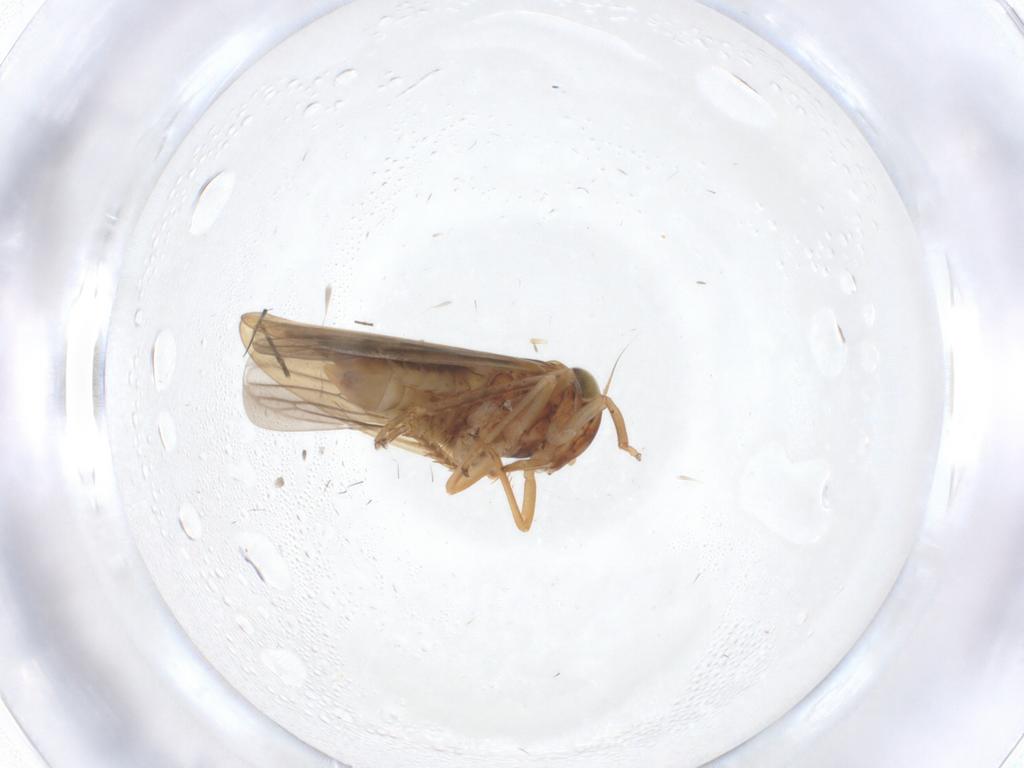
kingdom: Animalia
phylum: Arthropoda
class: Insecta
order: Hemiptera
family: Cicadellidae
